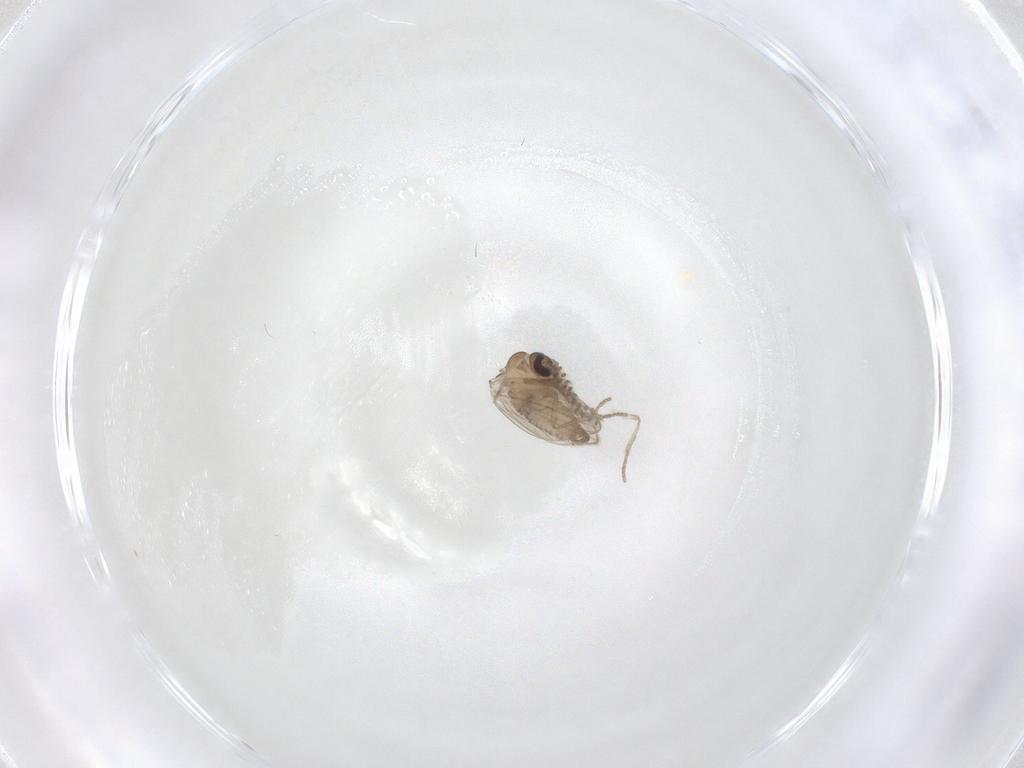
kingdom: Animalia
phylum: Arthropoda
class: Insecta
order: Diptera
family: Psychodidae
